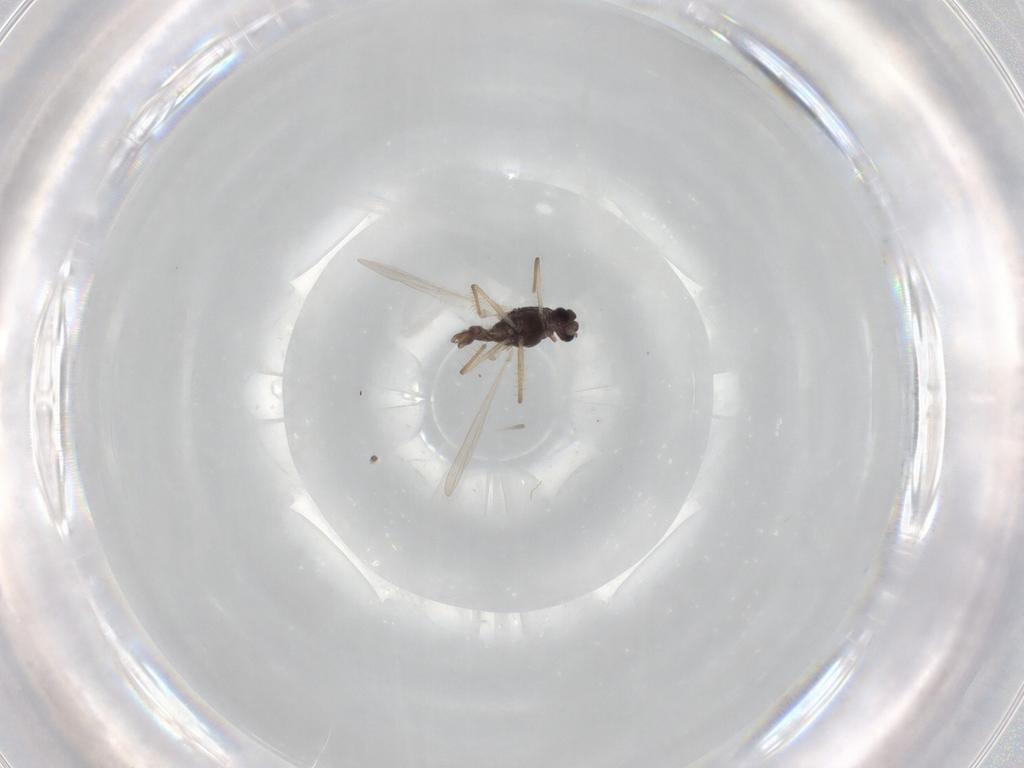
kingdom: Animalia
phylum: Arthropoda
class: Insecta
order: Diptera
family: Chironomidae
